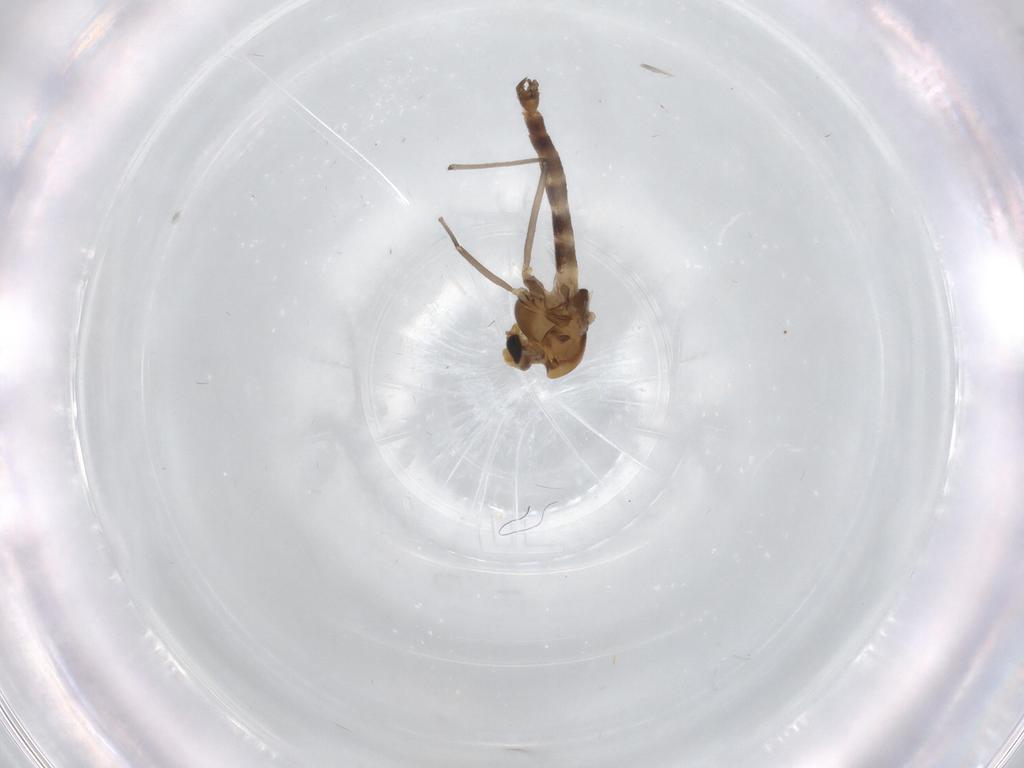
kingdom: Animalia
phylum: Arthropoda
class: Insecta
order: Diptera
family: Chironomidae
